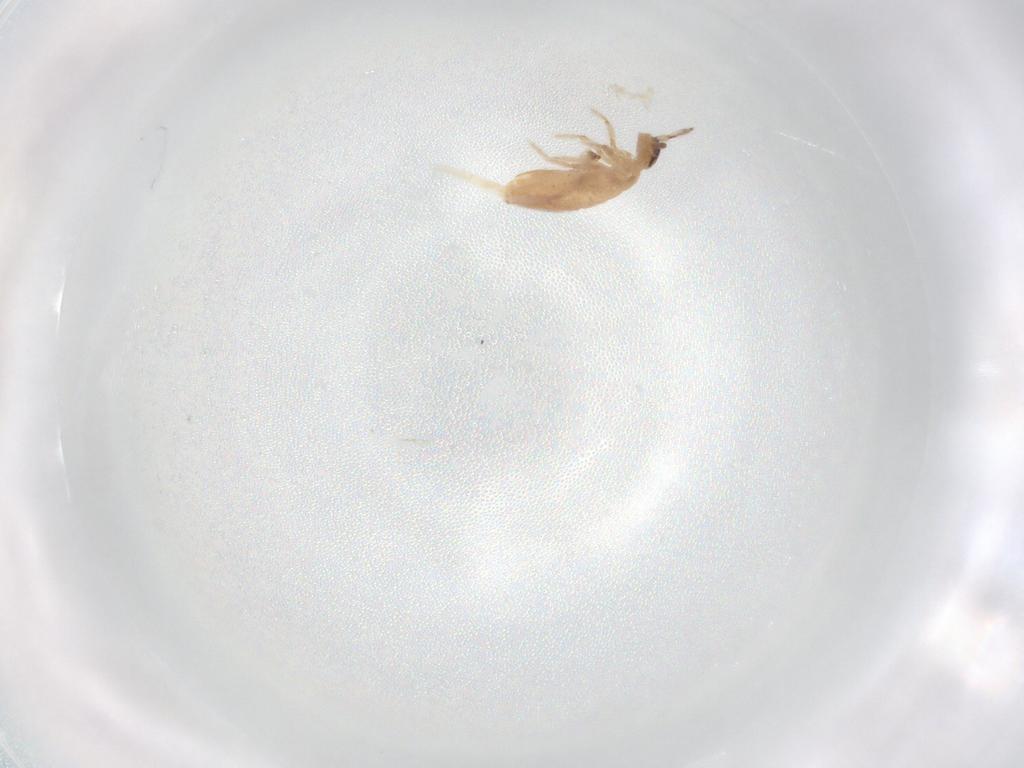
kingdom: Animalia
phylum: Arthropoda
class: Collembola
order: Entomobryomorpha
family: Entomobryidae
